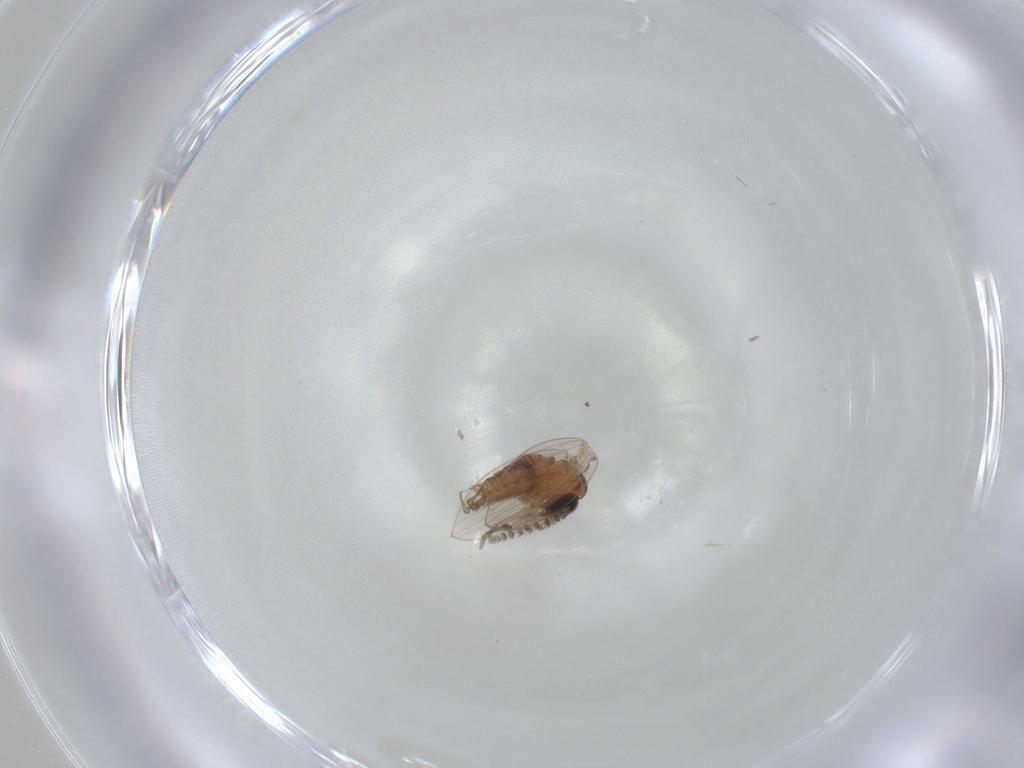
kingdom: Animalia
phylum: Arthropoda
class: Insecta
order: Diptera
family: Psychodidae
